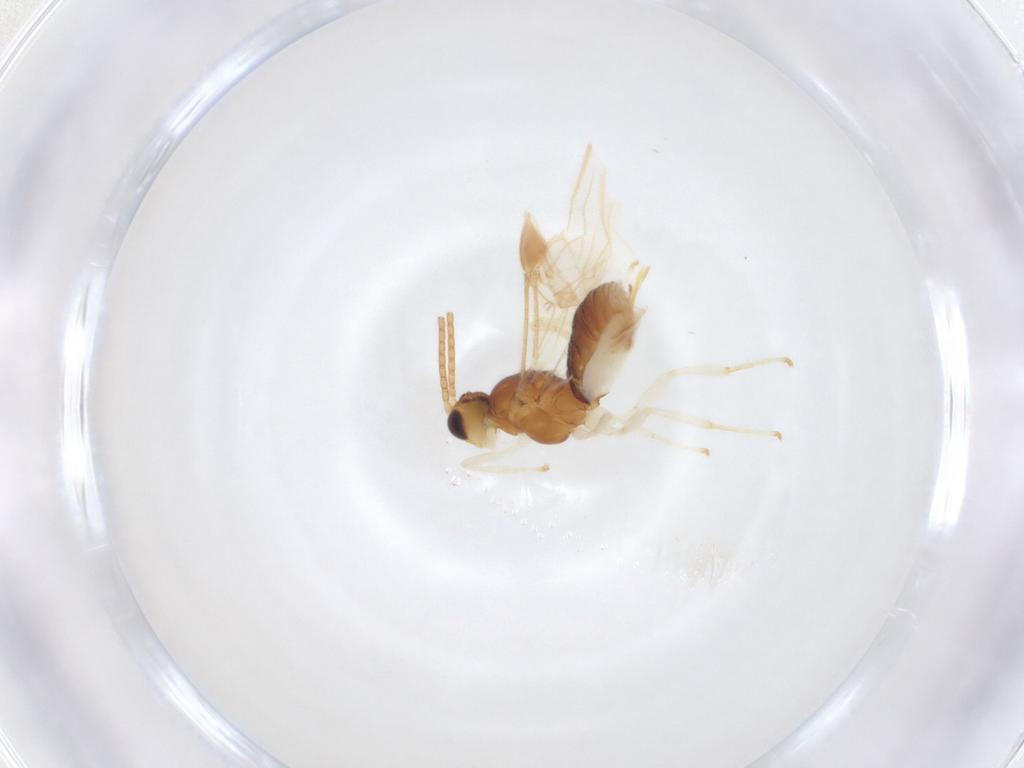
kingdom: Animalia
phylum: Arthropoda
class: Insecta
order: Hymenoptera
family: Braconidae
